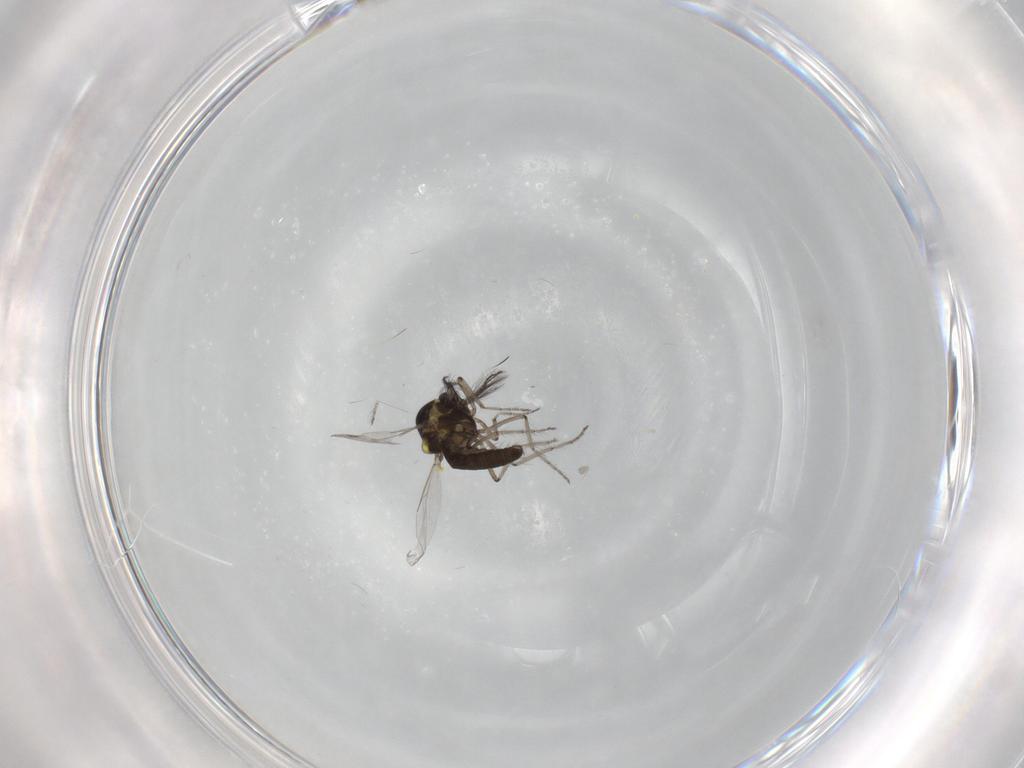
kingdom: Animalia
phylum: Arthropoda
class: Insecta
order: Diptera
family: Ceratopogonidae
